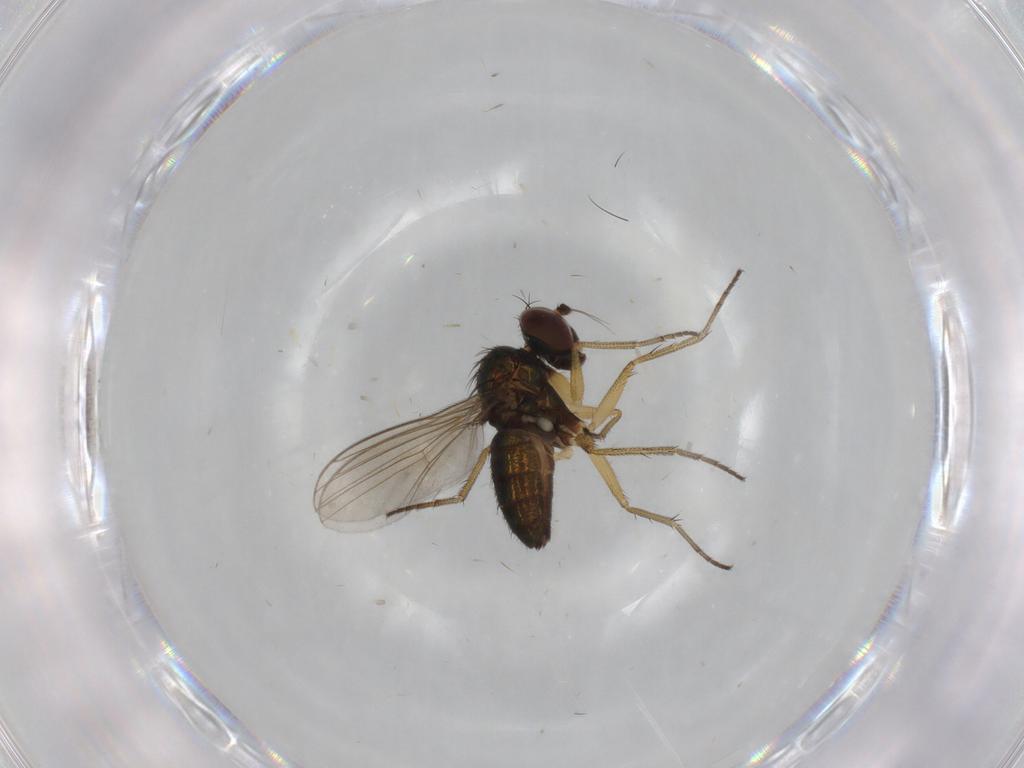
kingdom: Animalia
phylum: Arthropoda
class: Insecta
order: Diptera
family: Dolichopodidae
